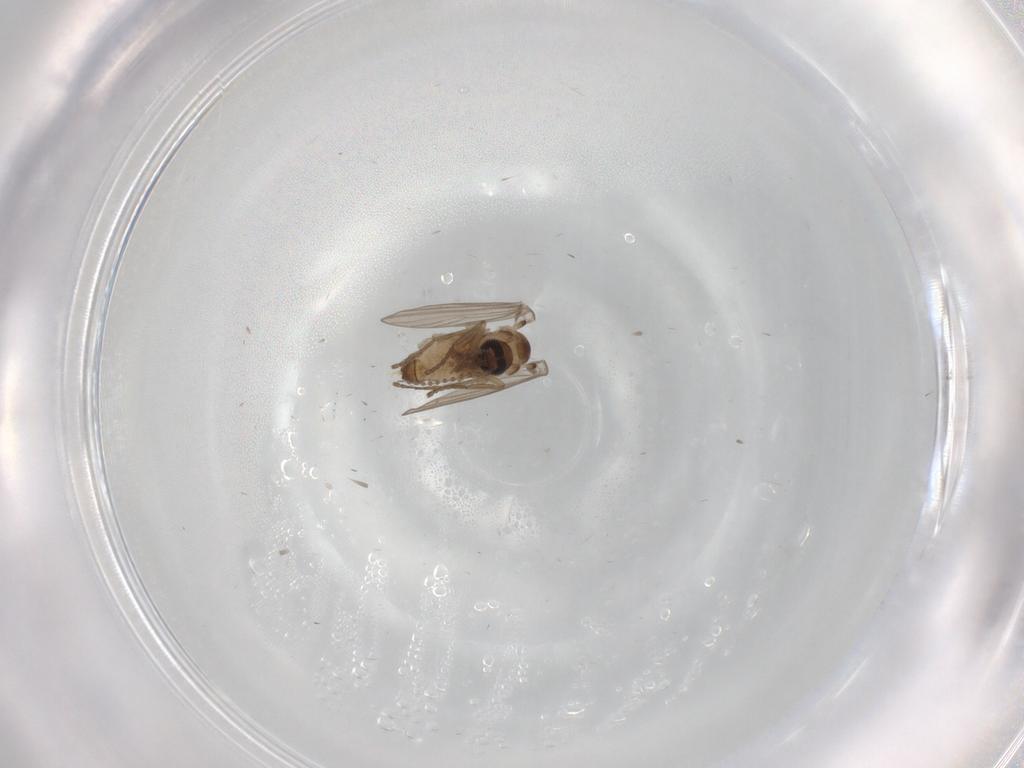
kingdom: Animalia
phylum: Arthropoda
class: Insecta
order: Diptera
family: Psychodidae
